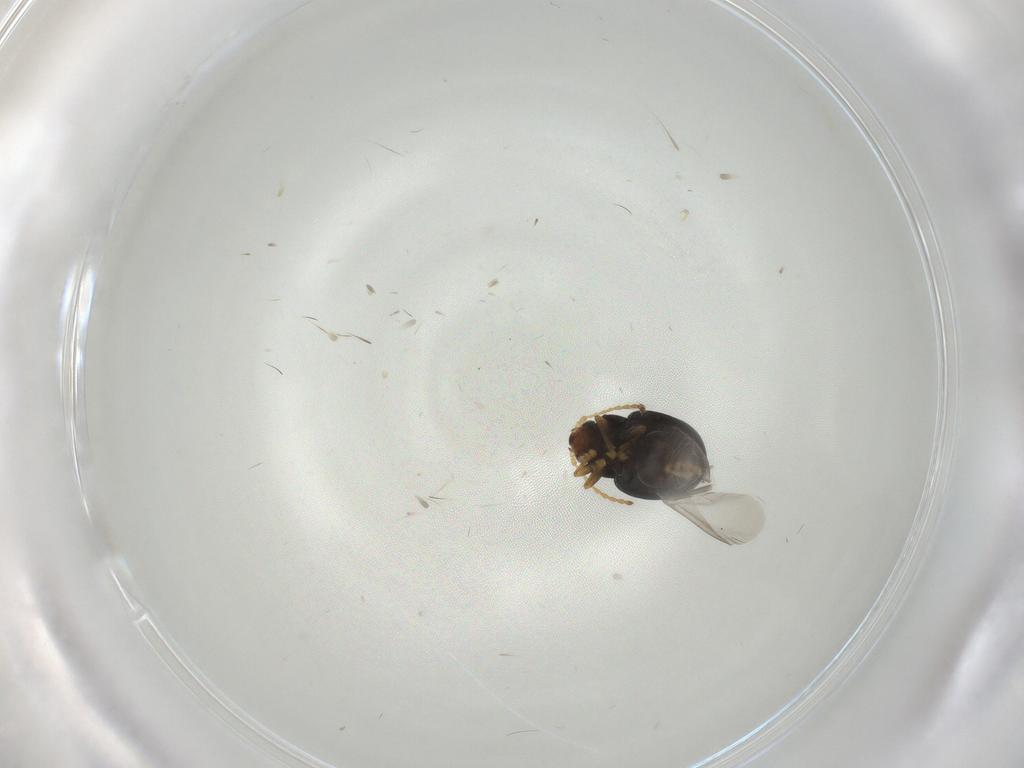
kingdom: Animalia
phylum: Arthropoda
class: Insecta
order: Coleoptera
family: Chrysomelidae
